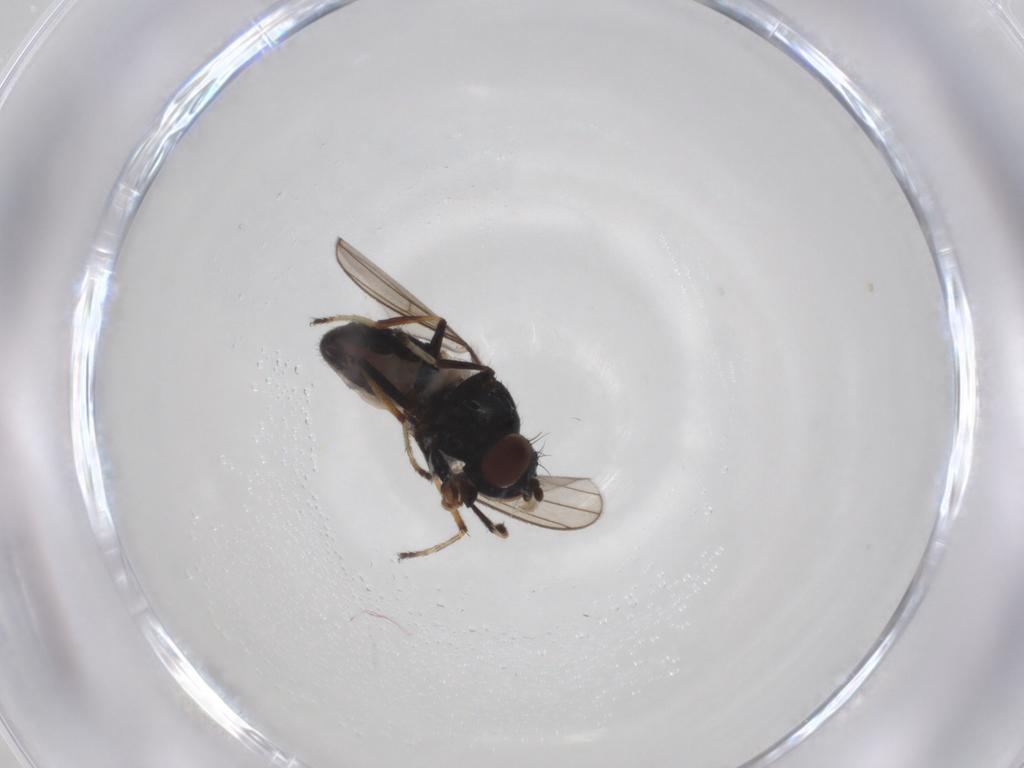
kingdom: Animalia
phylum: Arthropoda
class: Insecta
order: Diptera
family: Ephydridae
